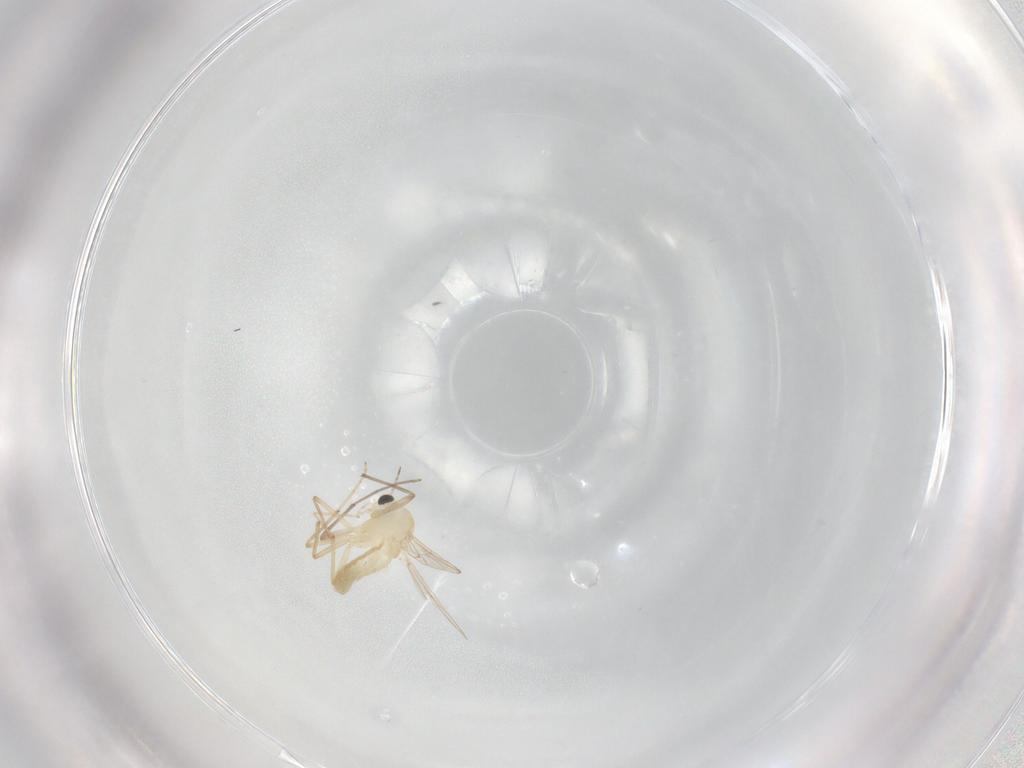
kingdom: Animalia
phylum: Arthropoda
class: Insecta
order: Diptera
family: Chironomidae
